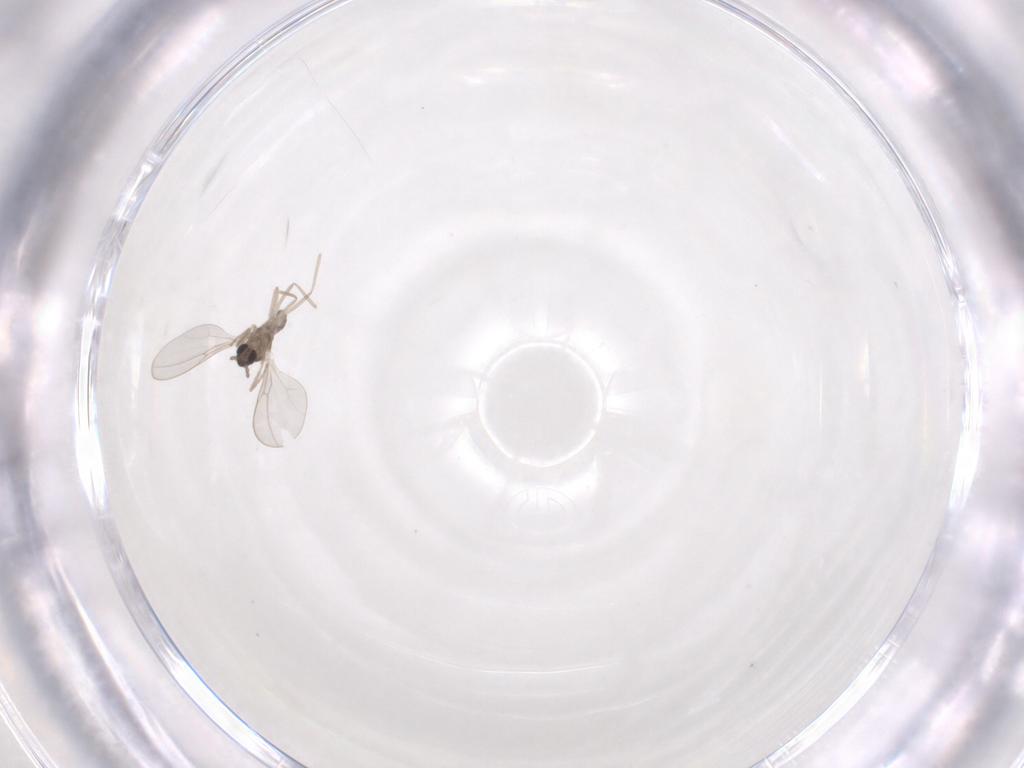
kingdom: Animalia
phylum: Arthropoda
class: Insecta
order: Diptera
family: Cecidomyiidae
